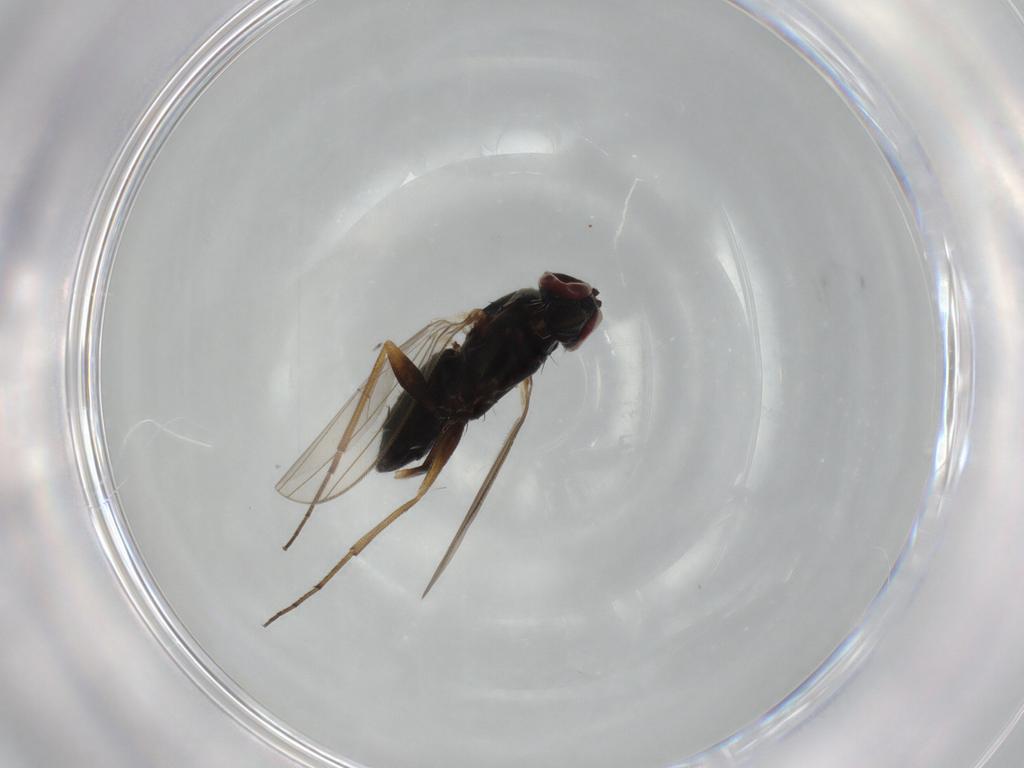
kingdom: Animalia
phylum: Arthropoda
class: Insecta
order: Diptera
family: Dolichopodidae
